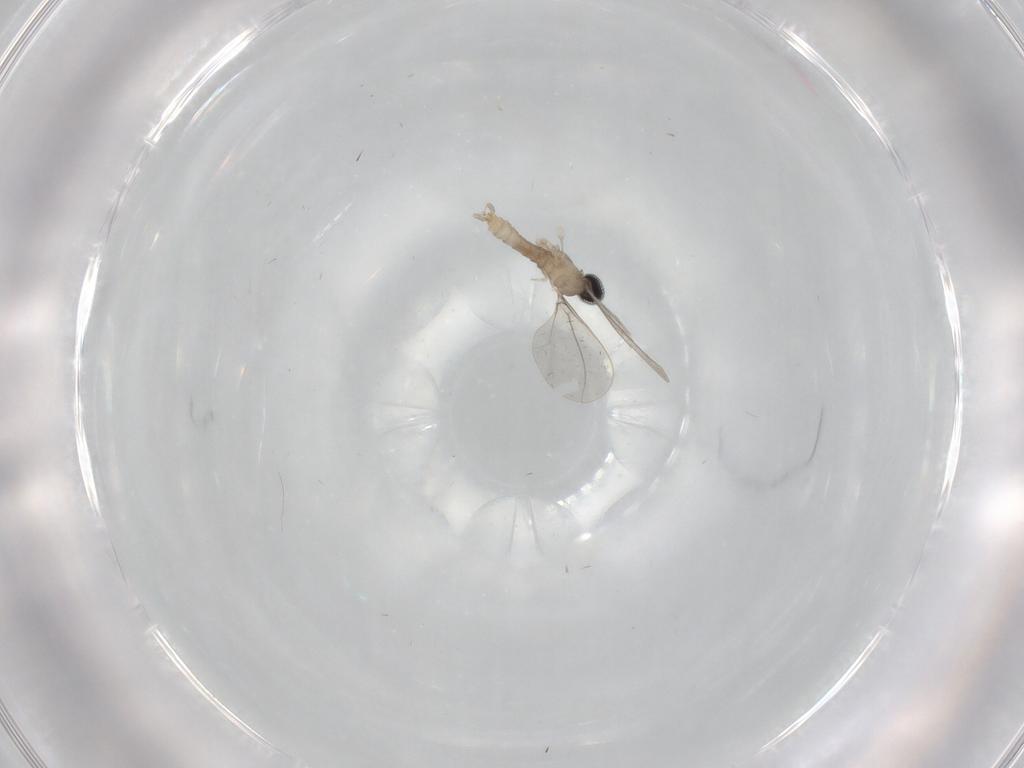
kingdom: Animalia
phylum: Arthropoda
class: Insecta
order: Diptera
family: Cecidomyiidae
